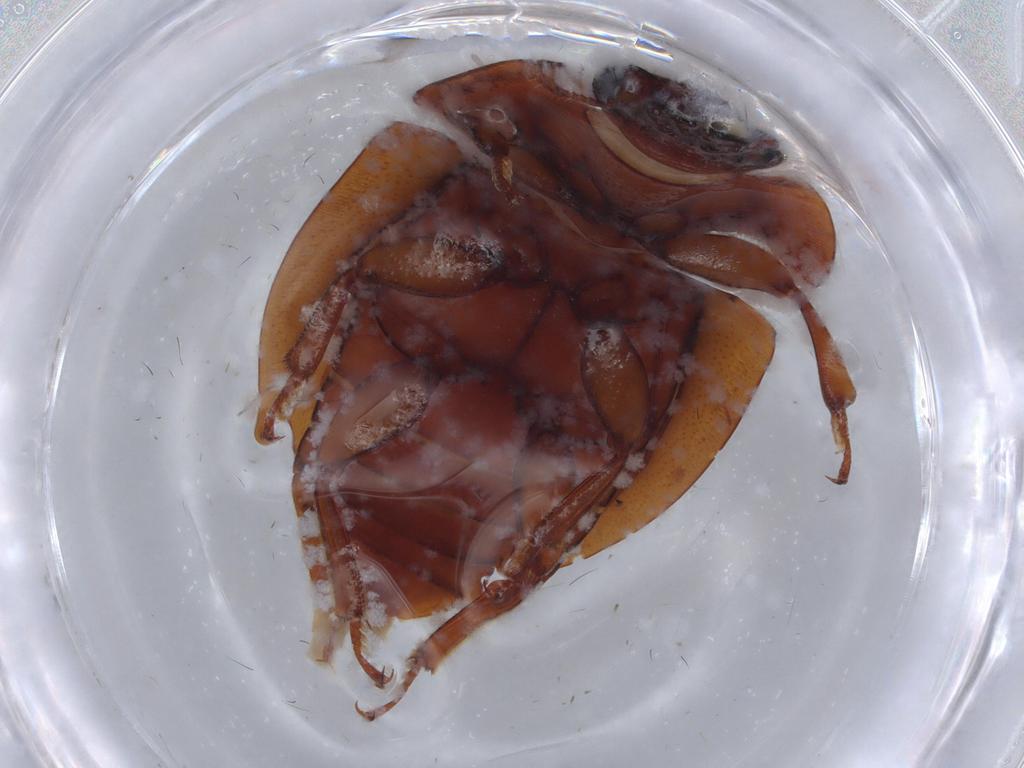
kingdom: Animalia
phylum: Arthropoda
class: Insecta
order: Coleoptera
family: Nitidulidae
